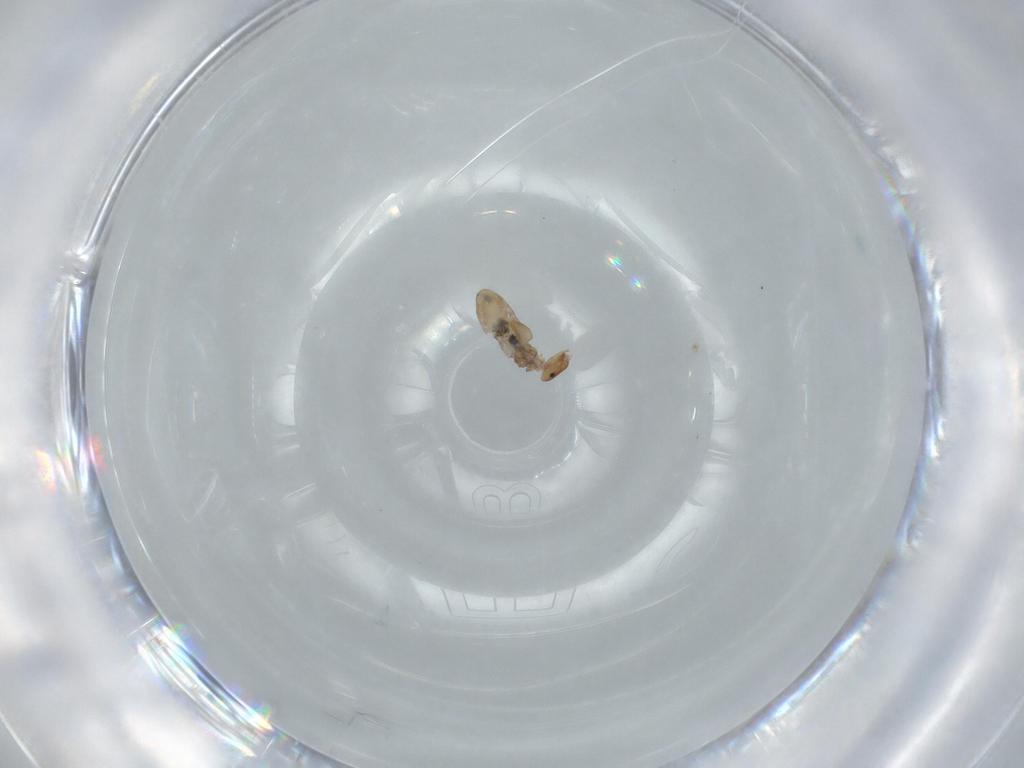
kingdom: Animalia
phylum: Arthropoda
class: Insecta
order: Psocodea
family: Liposcelididae
